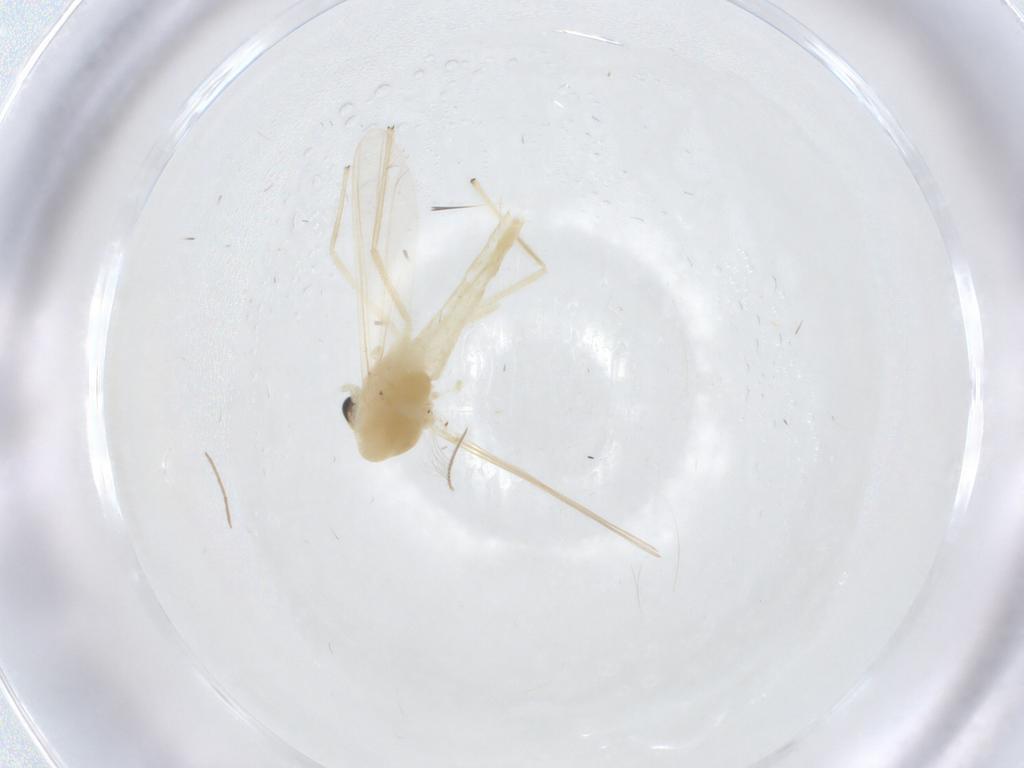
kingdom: Animalia
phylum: Arthropoda
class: Insecta
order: Diptera
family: Chironomidae
